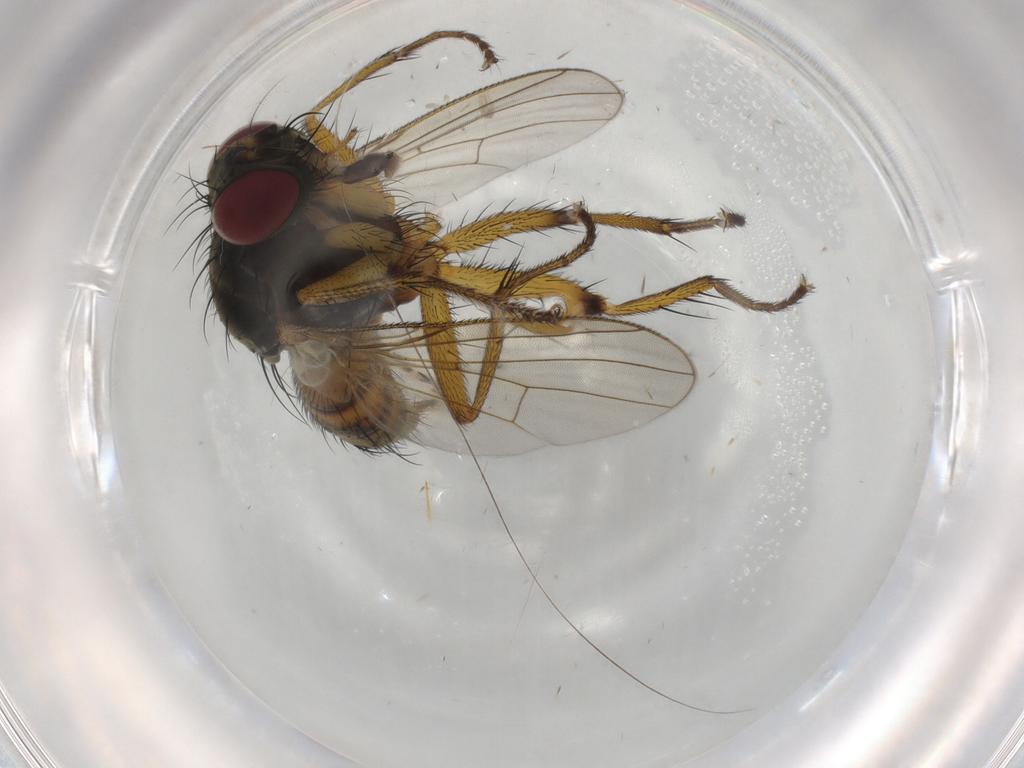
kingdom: Animalia
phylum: Arthropoda
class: Insecta
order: Diptera
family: Muscidae
